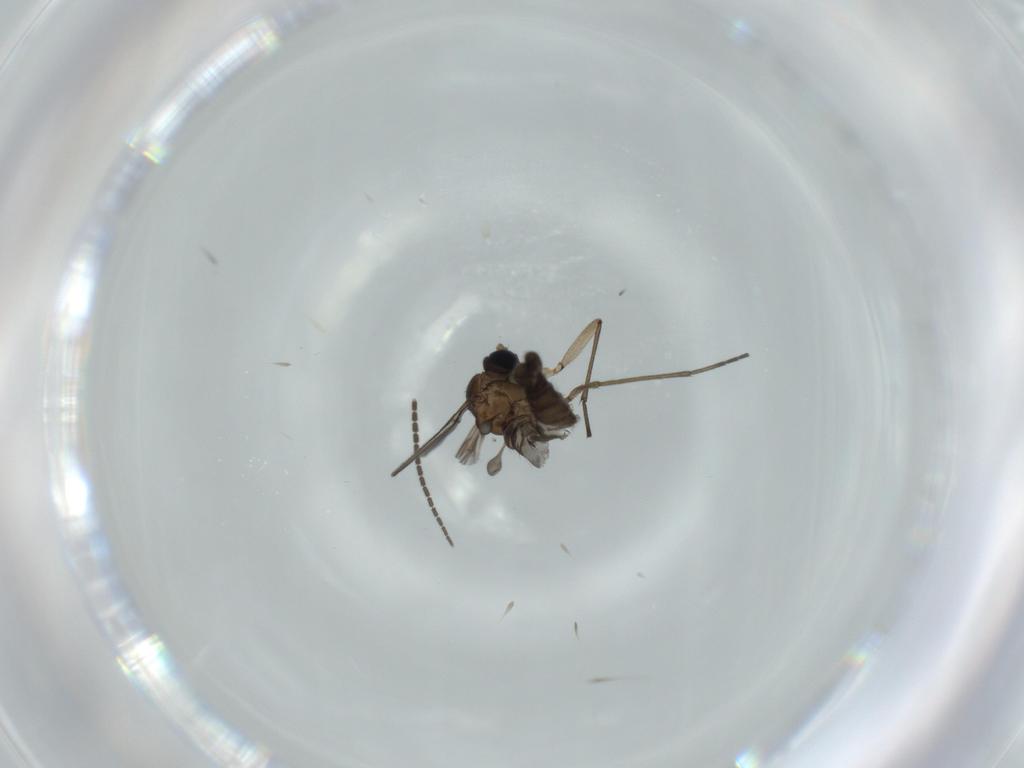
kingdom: Animalia
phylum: Arthropoda
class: Insecta
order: Diptera
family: Sciaridae
